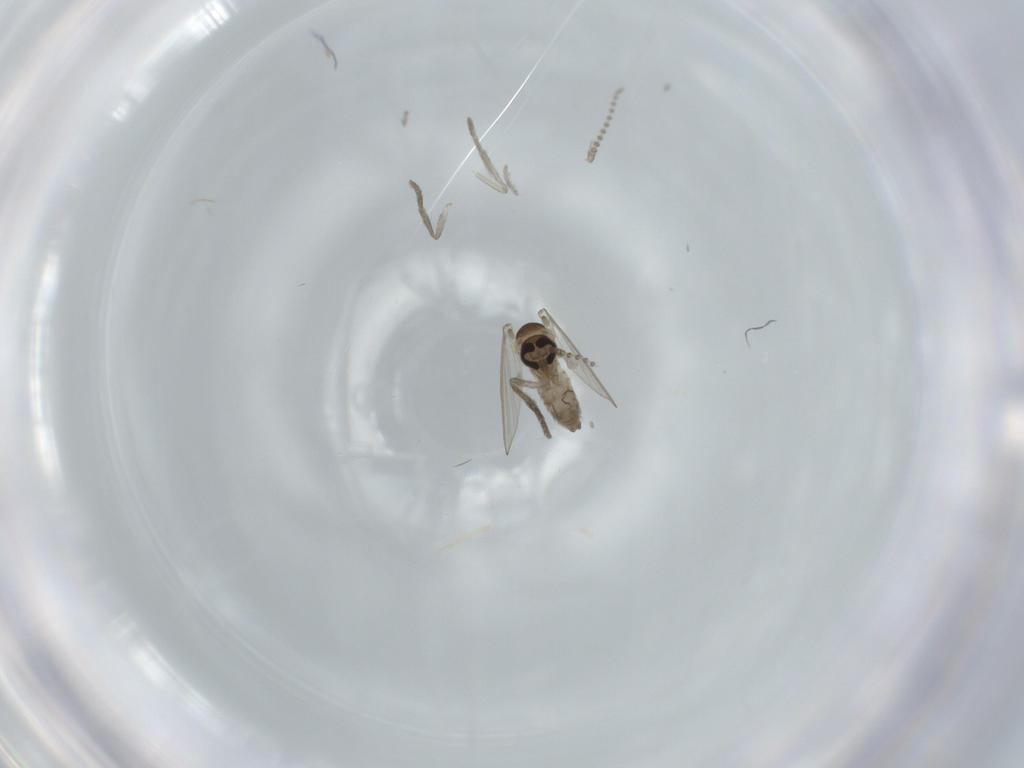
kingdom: Animalia
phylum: Arthropoda
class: Insecta
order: Diptera
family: Psychodidae
